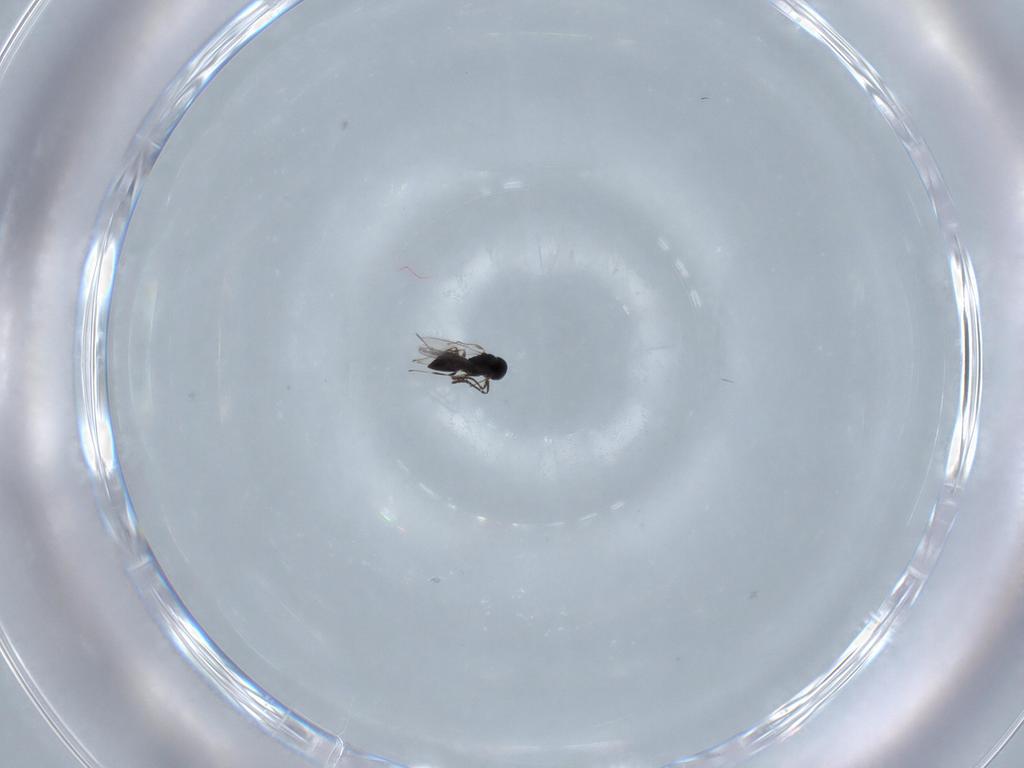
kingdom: Animalia
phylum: Arthropoda
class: Insecta
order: Hymenoptera
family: Scelionidae
